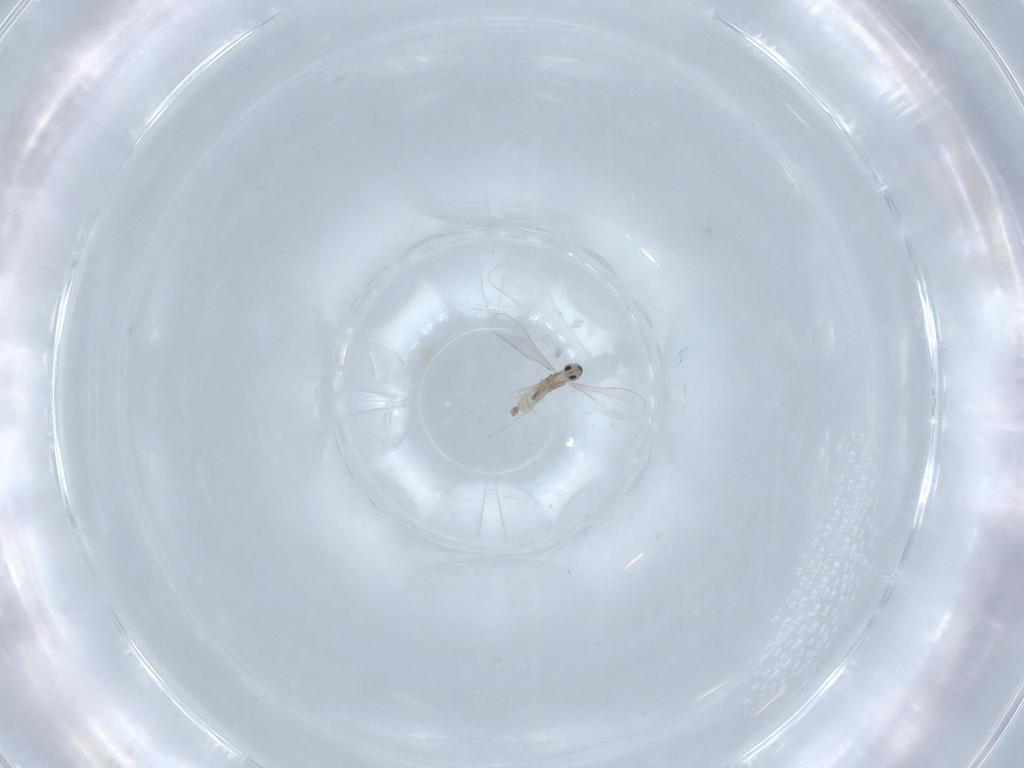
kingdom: Animalia
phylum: Arthropoda
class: Insecta
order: Diptera
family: Cecidomyiidae
